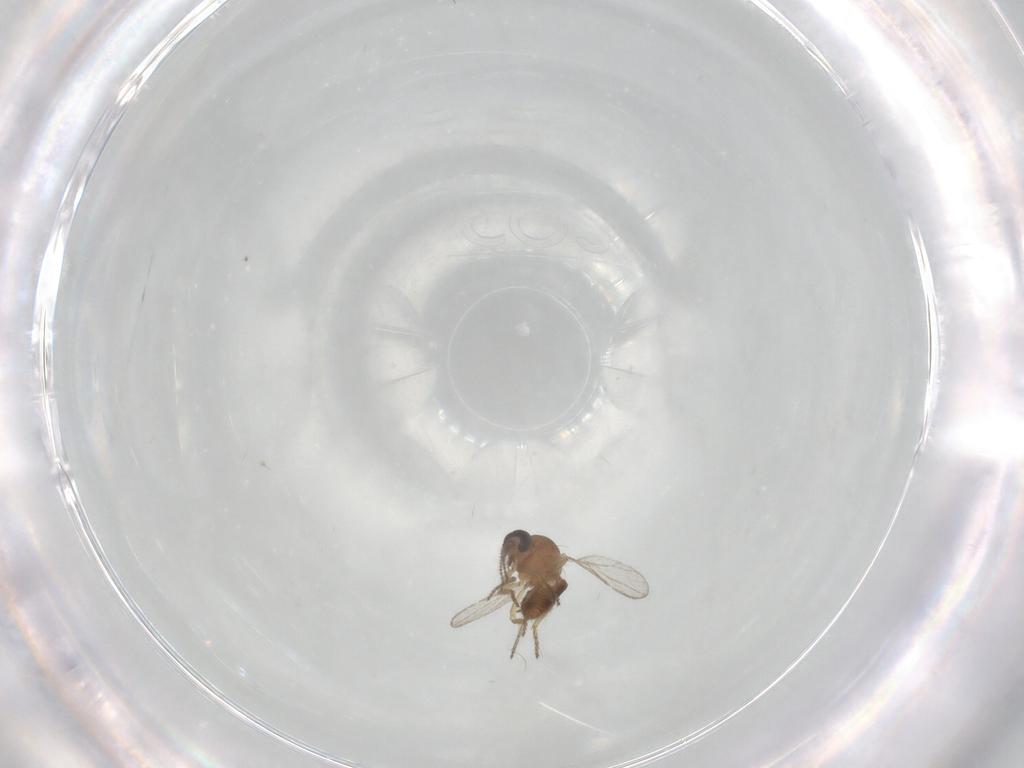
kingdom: Animalia
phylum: Arthropoda
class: Insecta
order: Diptera
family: Ceratopogonidae
